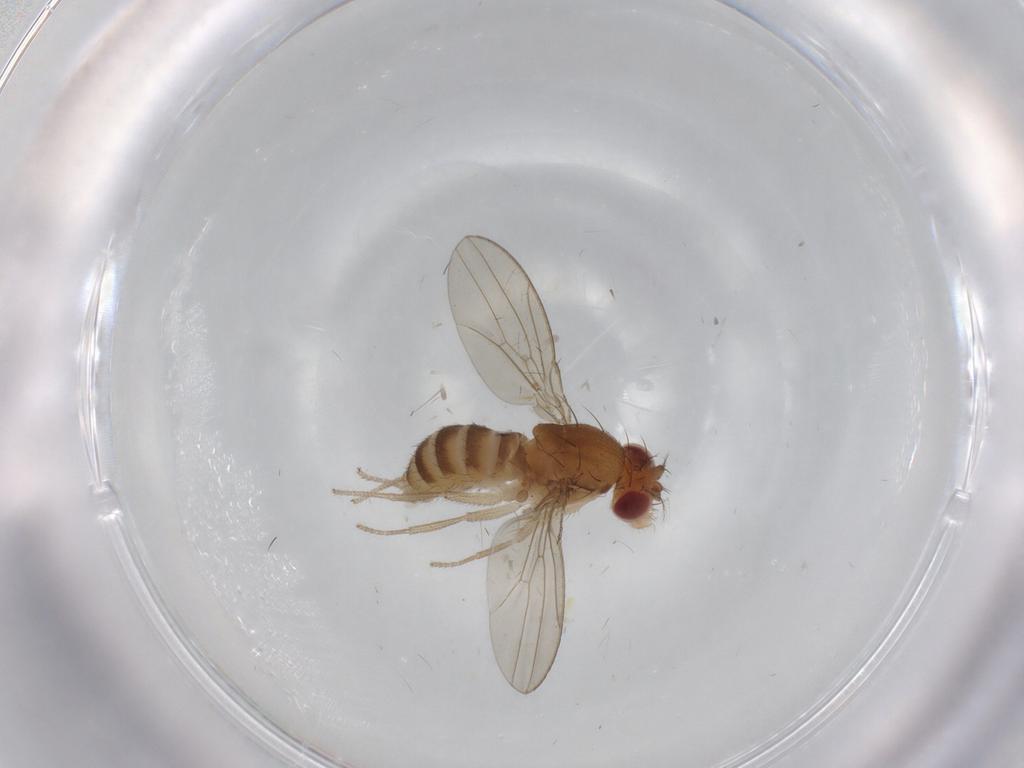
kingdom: Animalia
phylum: Arthropoda
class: Insecta
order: Diptera
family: Drosophilidae
